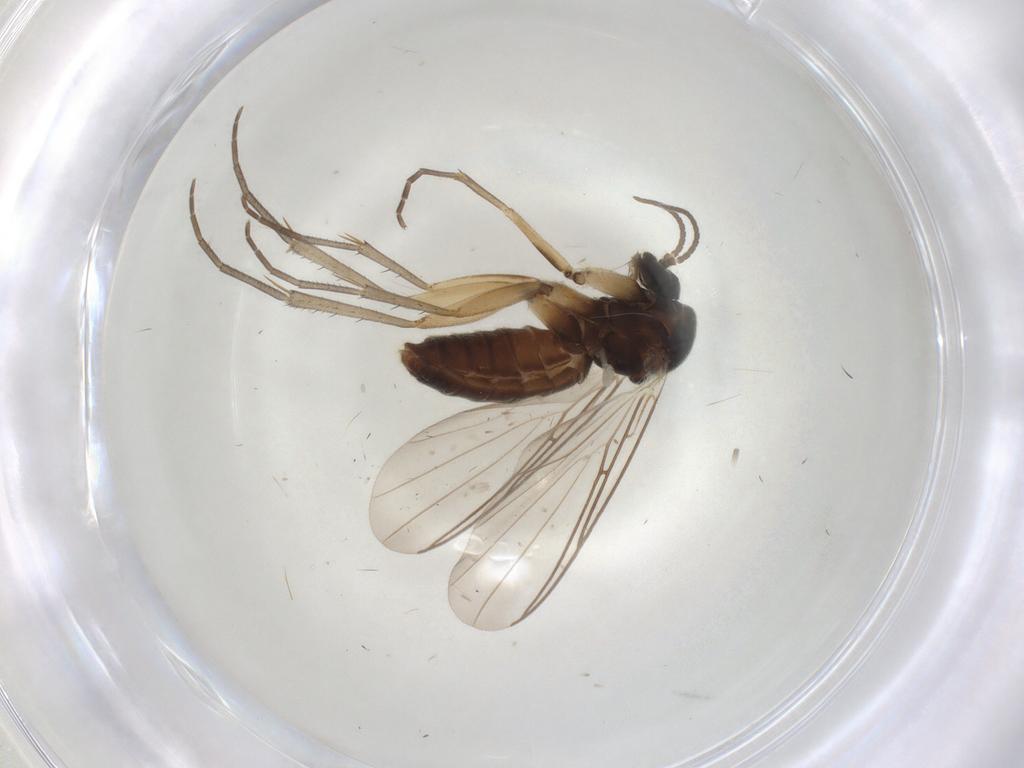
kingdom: Animalia
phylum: Arthropoda
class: Insecta
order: Diptera
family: Mycetophilidae
